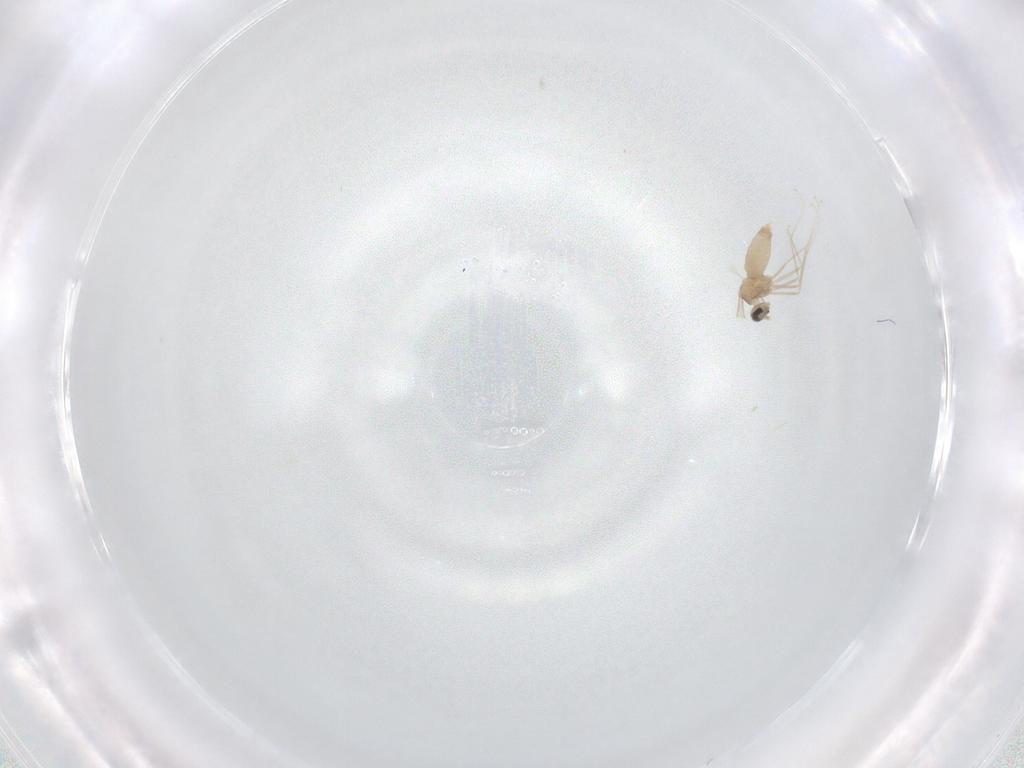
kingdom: Animalia
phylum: Arthropoda
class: Insecta
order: Diptera
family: Cecidomyiidae
